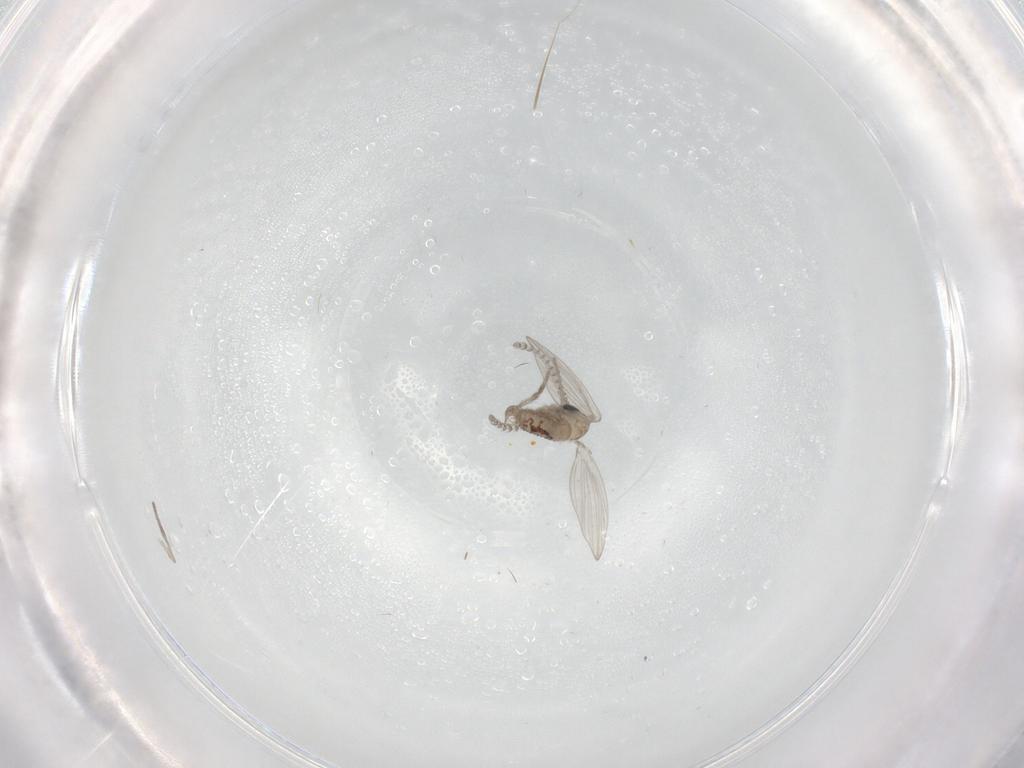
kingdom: Animalia
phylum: Arthropoda
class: Insecta
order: Diptera
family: Psychodidae
